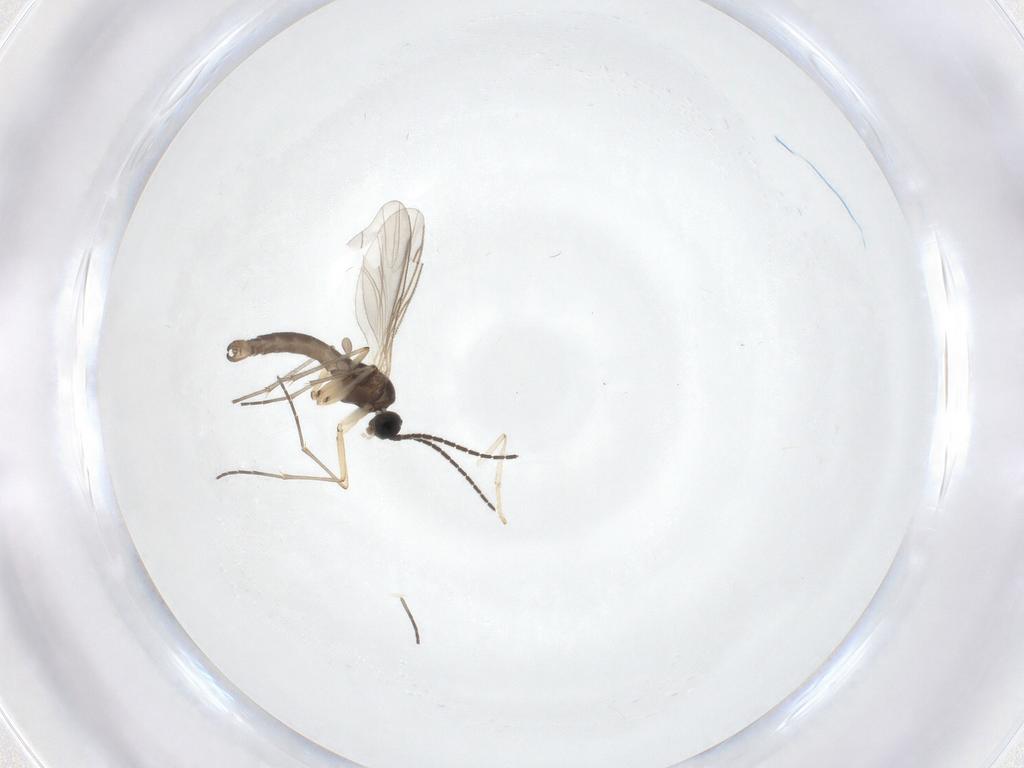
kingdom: Animalia
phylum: Arthropoda
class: Insecta
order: Diptera
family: Sciaridae
